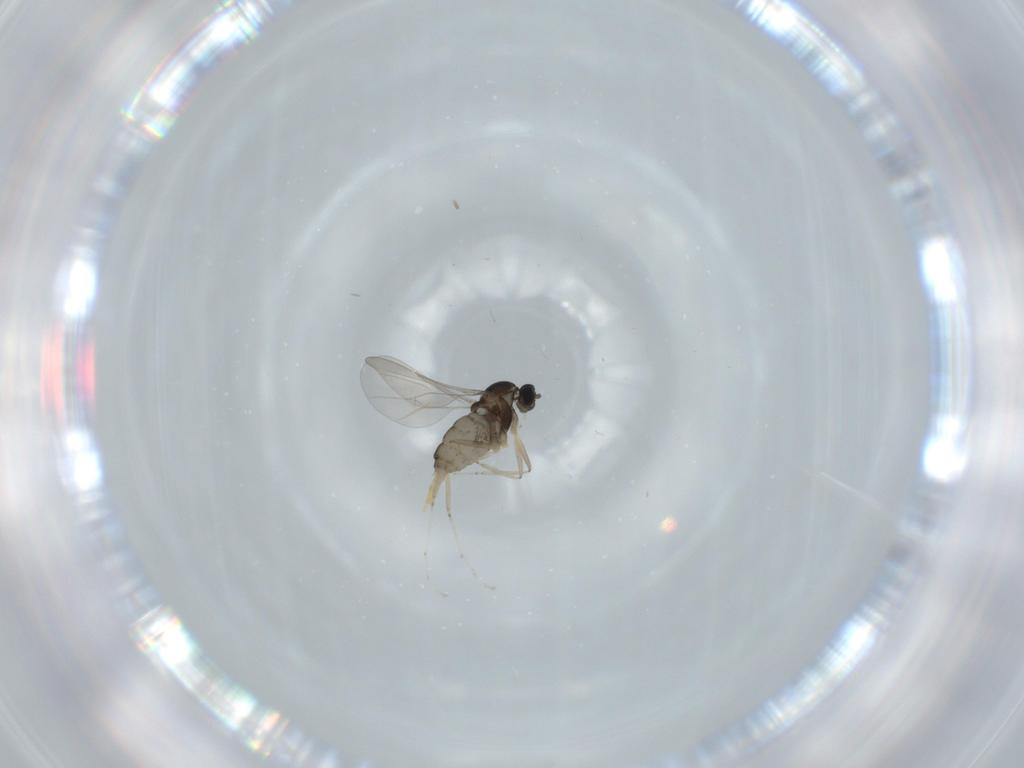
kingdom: Animalia
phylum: Arthropoda
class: Insecta
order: Diptera
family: Cecidomyiidae
